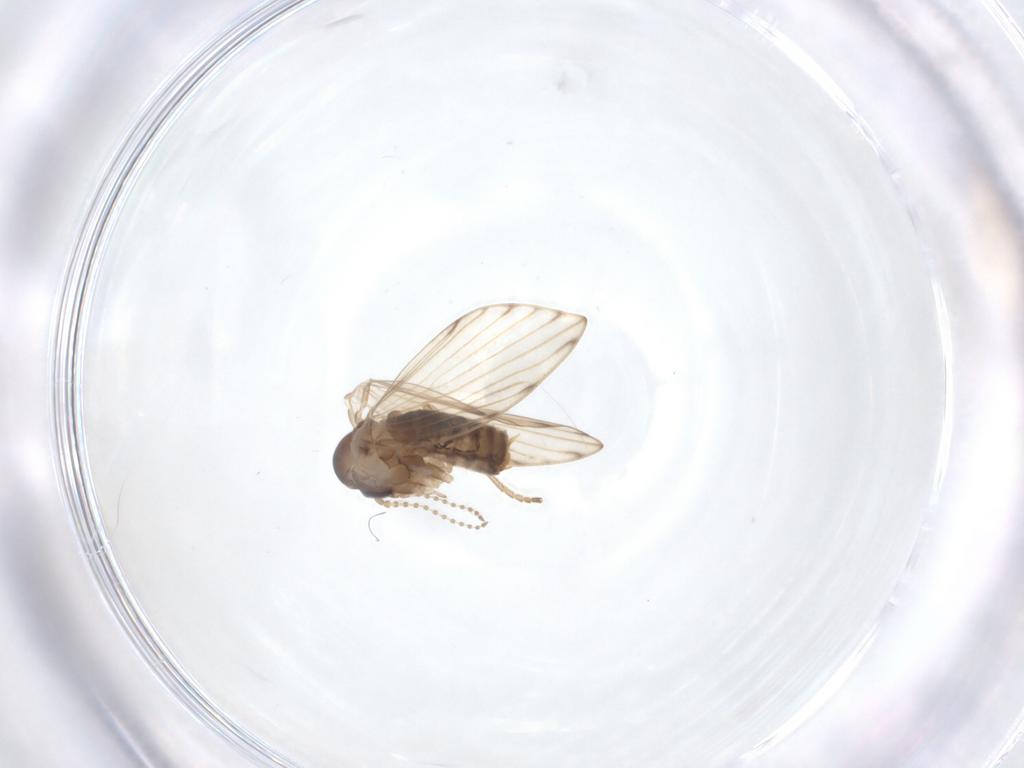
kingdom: Animalia
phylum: Arthropoda
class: Insecta
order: Diptera
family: Psychodidae
